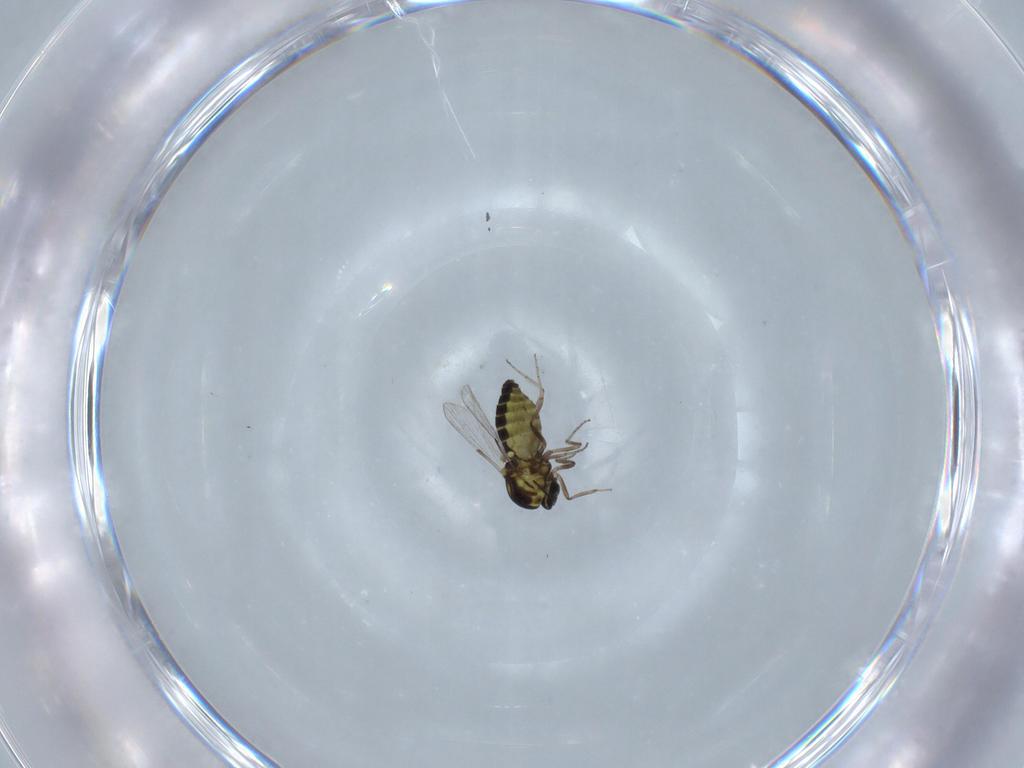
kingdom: Animalia
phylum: Arthropoda
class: Insecta
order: Diptera
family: Ceratopogonidae
